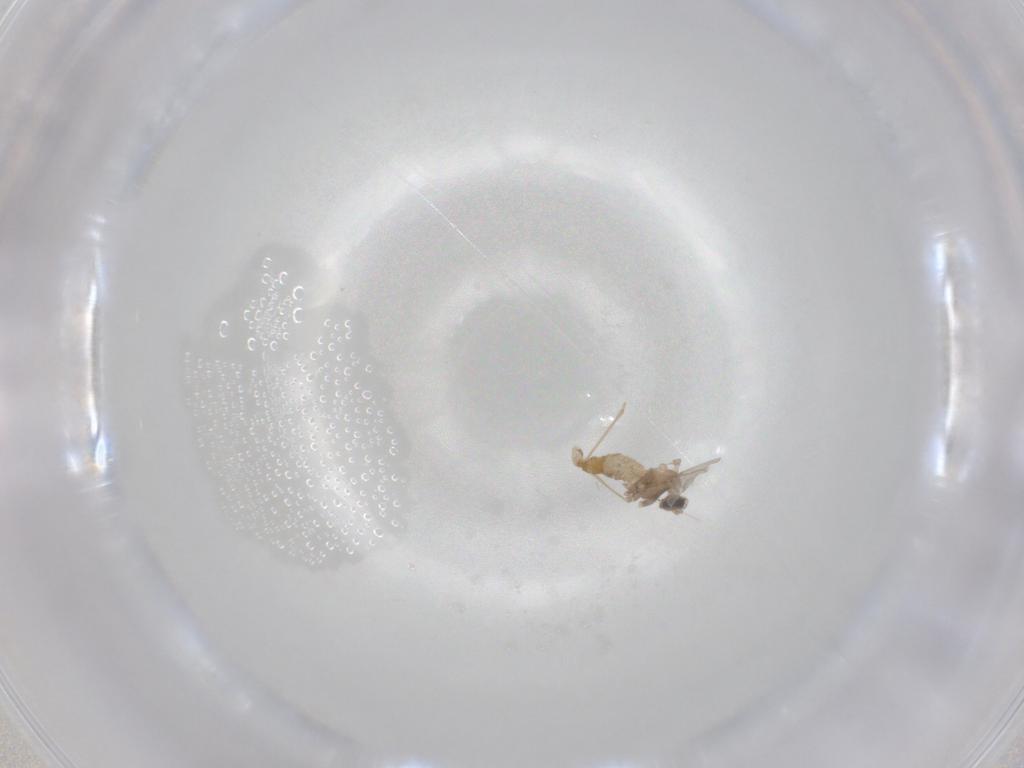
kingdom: Animalia
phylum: Arthropoda
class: Insecta
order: Diptera
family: Cecidomyiidae
